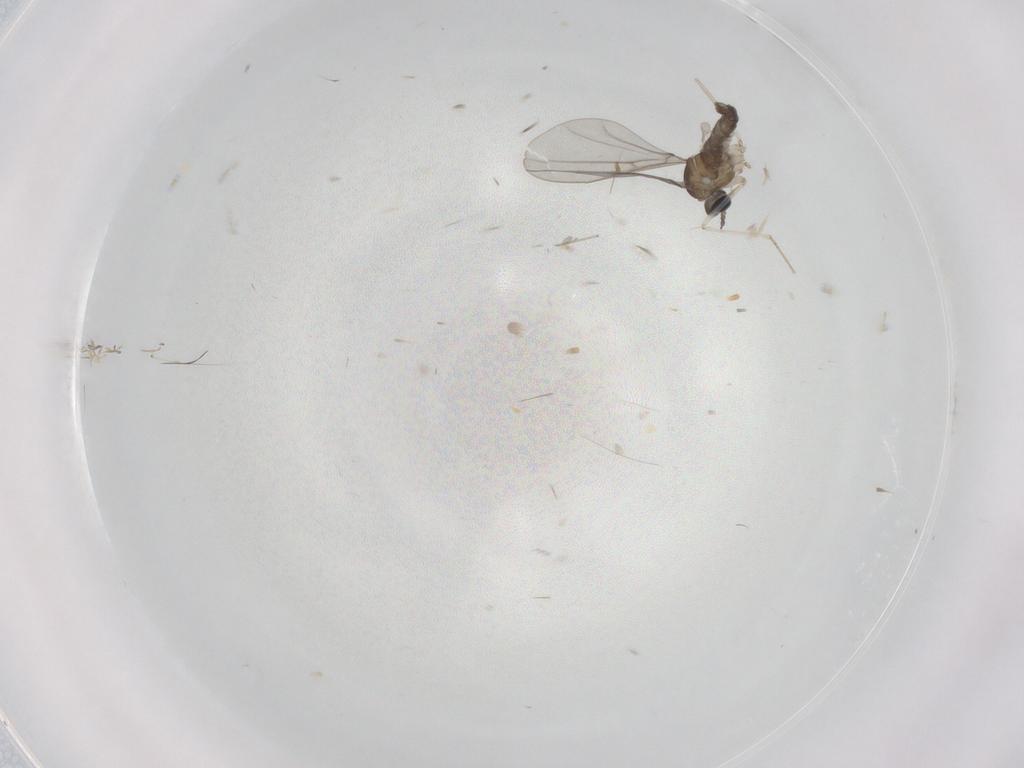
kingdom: Animalia
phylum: Arthropoda
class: Insecta
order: Diptera
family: Cecidomyiidae
